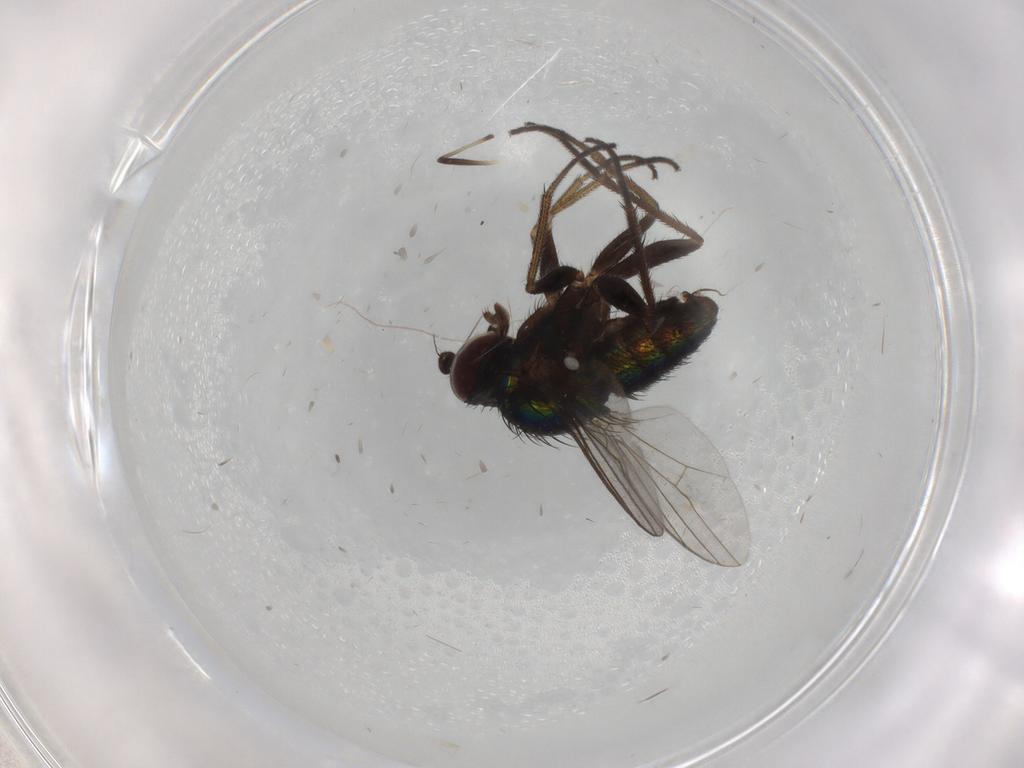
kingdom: Animalia
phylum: Arthropoda
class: Insecta
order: Diptera
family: Dolichopodidae
